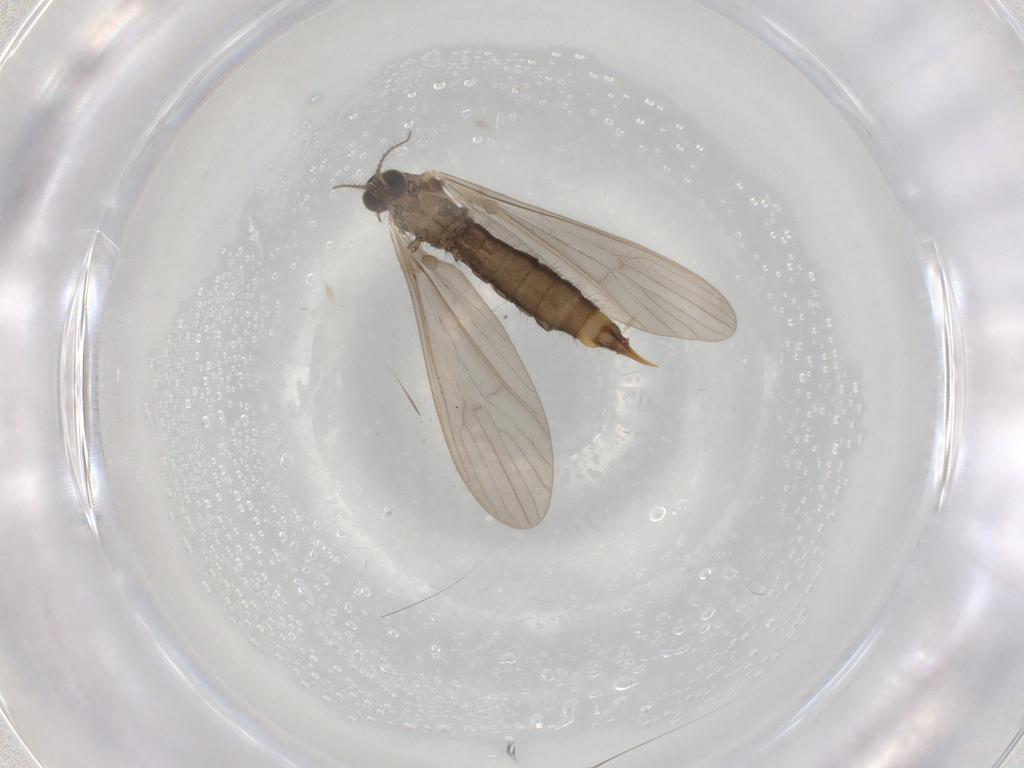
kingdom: Animalia
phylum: Arthropoda
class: Insecta
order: Diptera
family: Limoniidae
